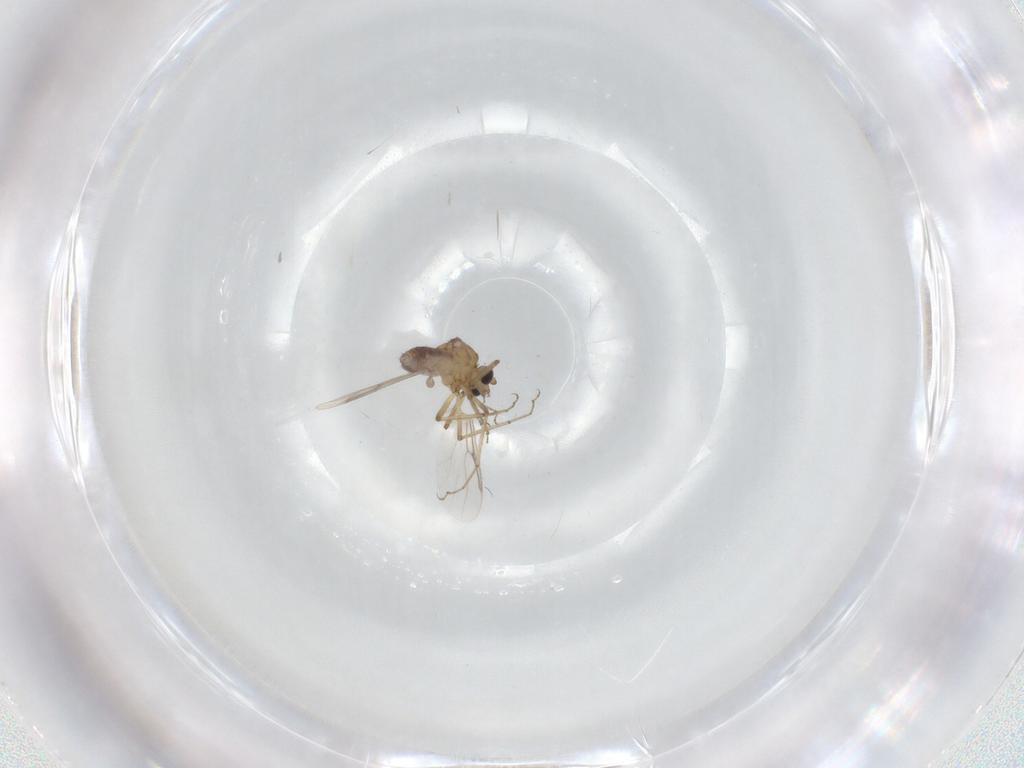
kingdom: Animalia
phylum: Arthropoda
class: Insecta
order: Diptera
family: Ceratopogonidae
